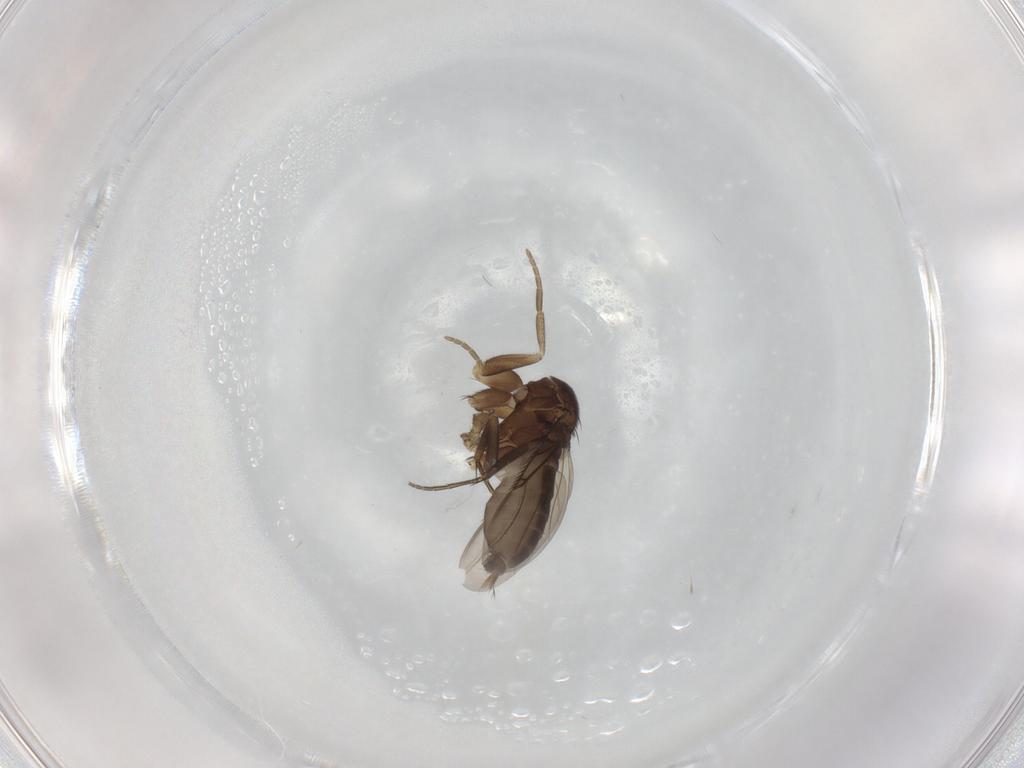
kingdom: Animalia
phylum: Arthropoda
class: Insecta
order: Diptera
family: Phoridae
